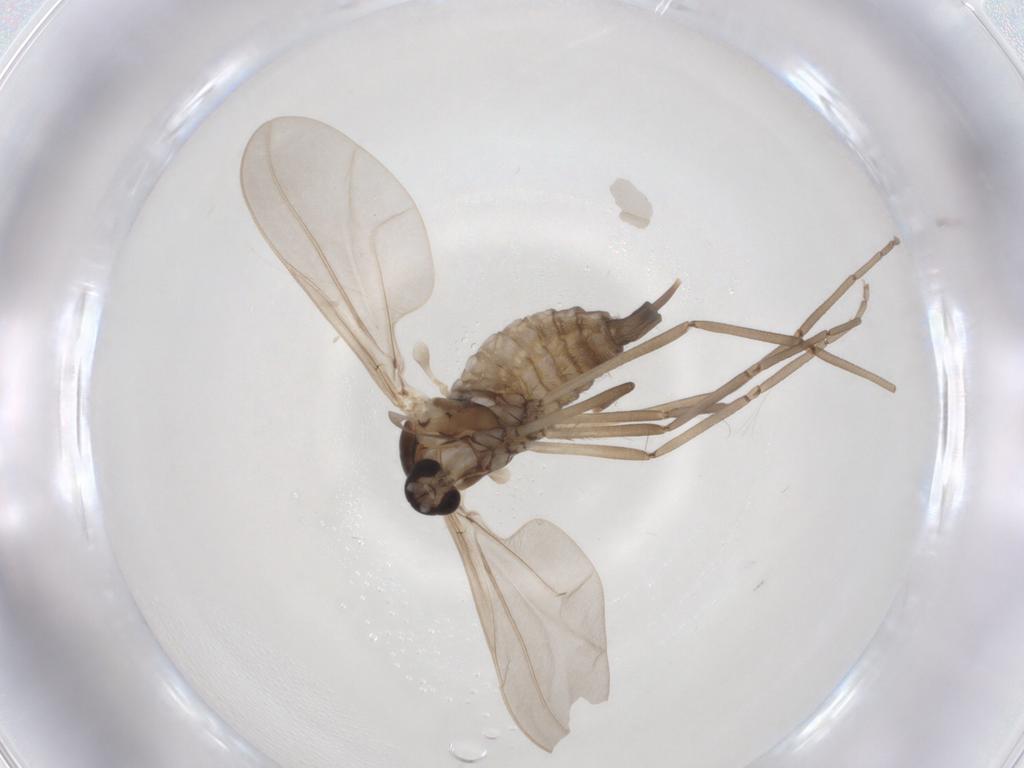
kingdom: Animalia
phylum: Arthropoda
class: Insecta
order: Diptera
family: Cecidomyiidae
